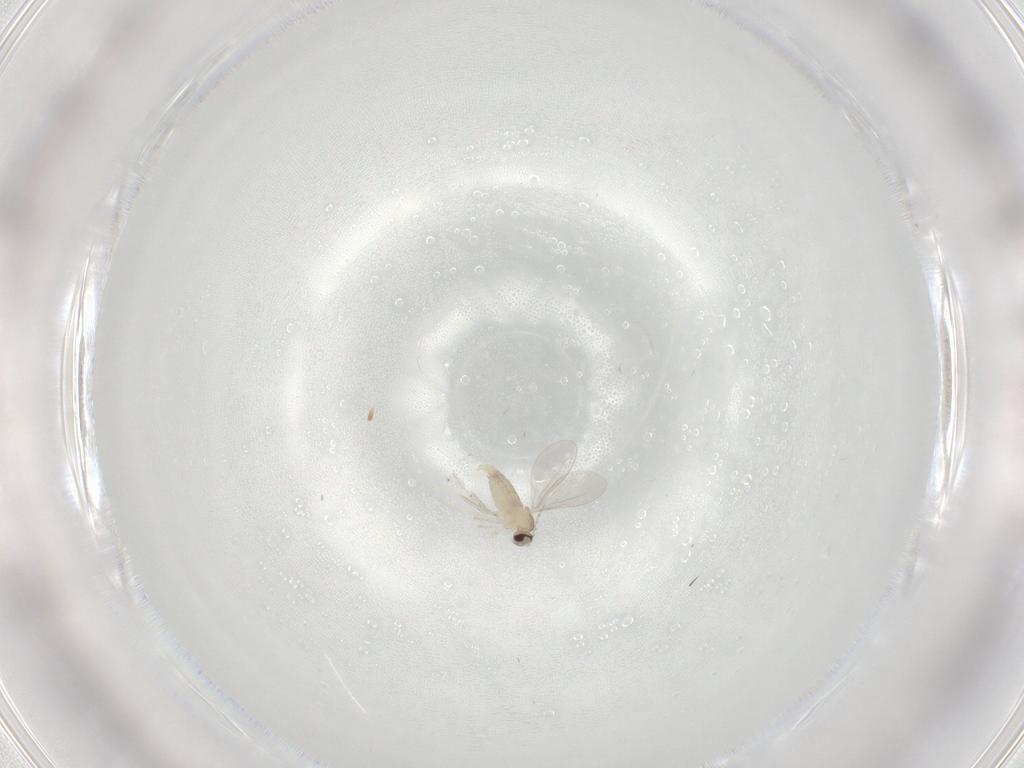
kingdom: Animalia
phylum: Arthropoda
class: Insecta
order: Diptera
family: Cecidomyiidae
